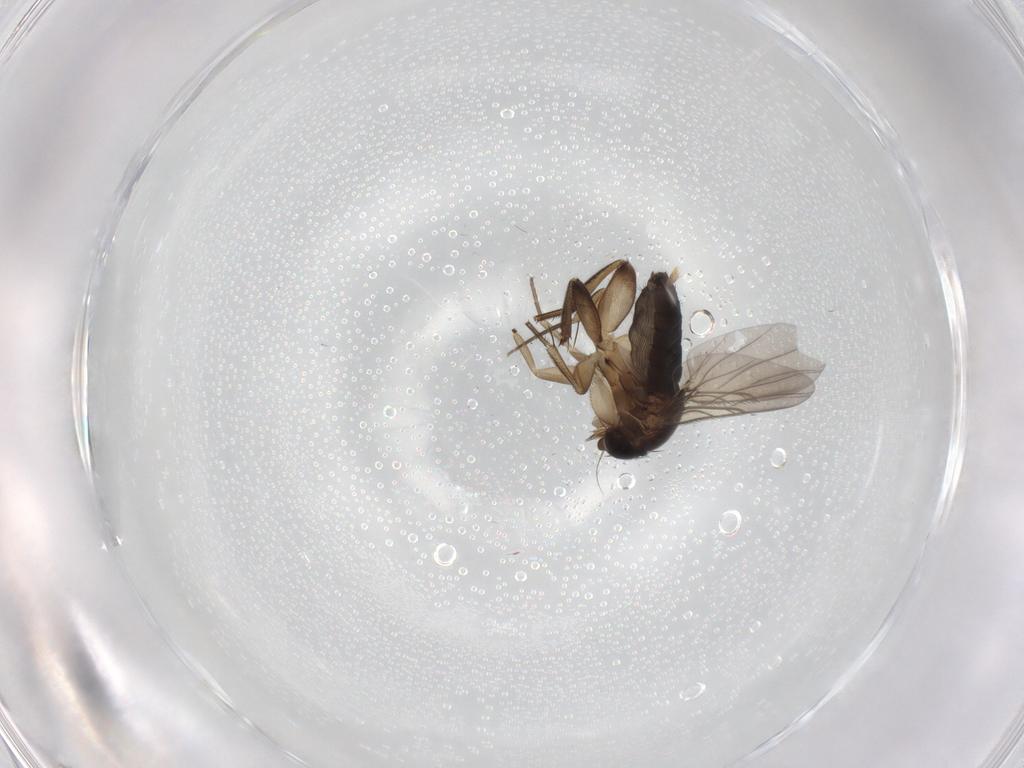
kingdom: Animalia
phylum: Arthropoda
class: Insecta
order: Diptera
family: Phoridae
